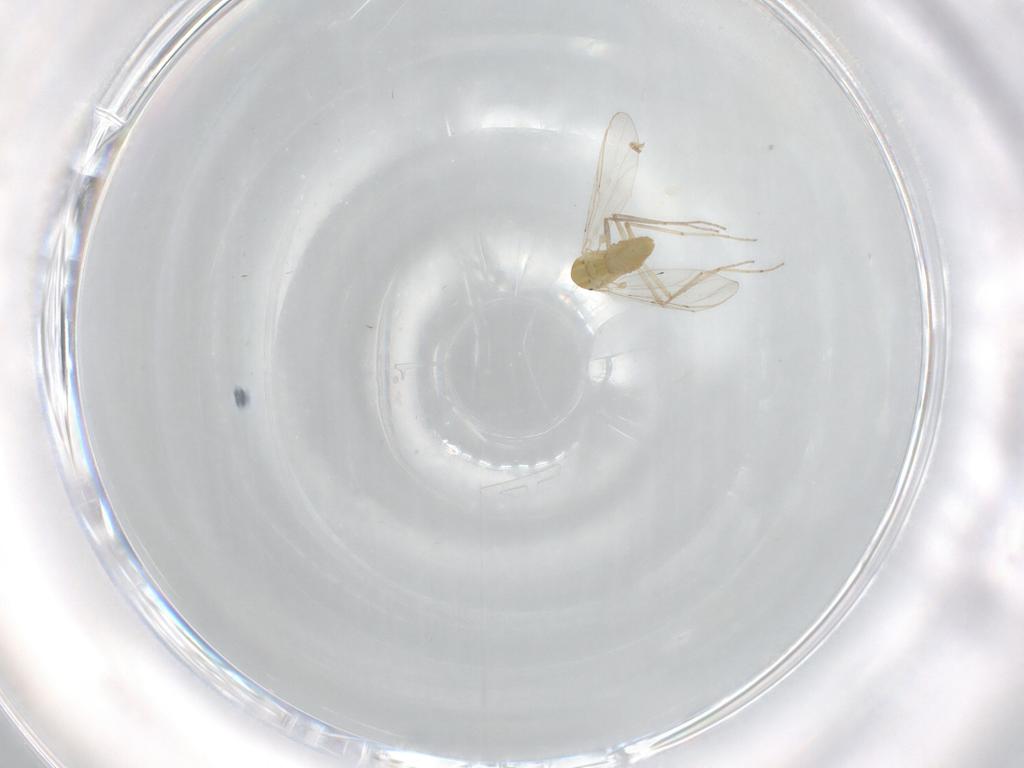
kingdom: Animalia
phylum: Arthropoda
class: Insecta
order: Diptera
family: Chironomidae
